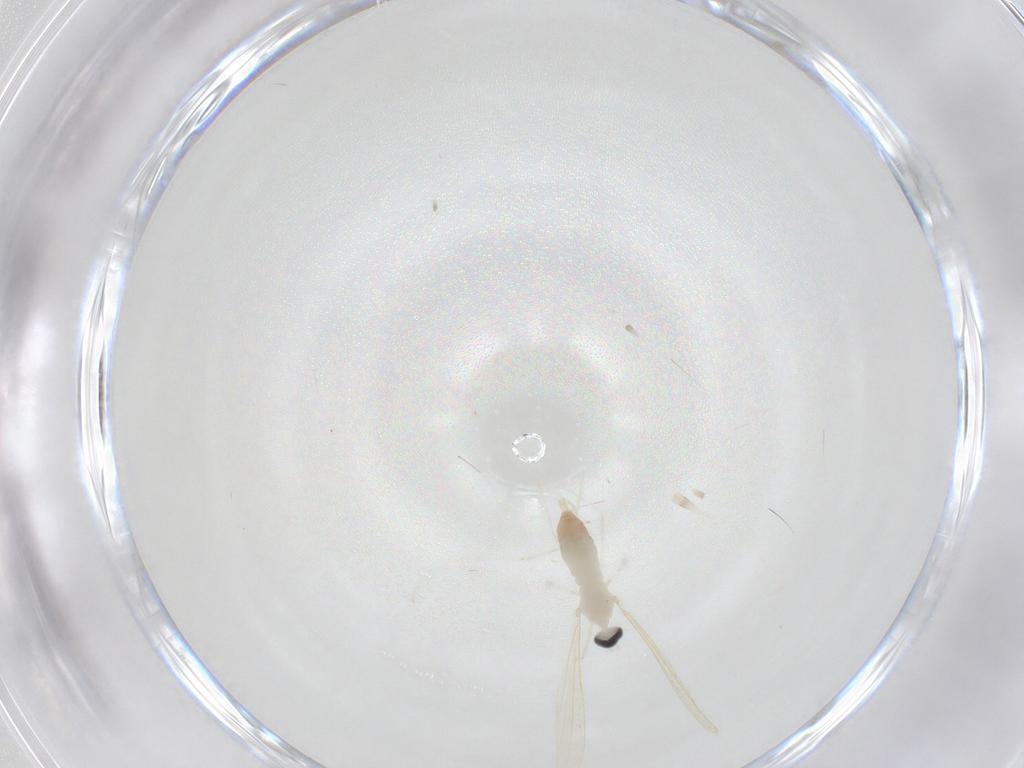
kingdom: Animalia
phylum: Arthropoda
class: Insecta
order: Diptera
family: Cecidomyiidae
